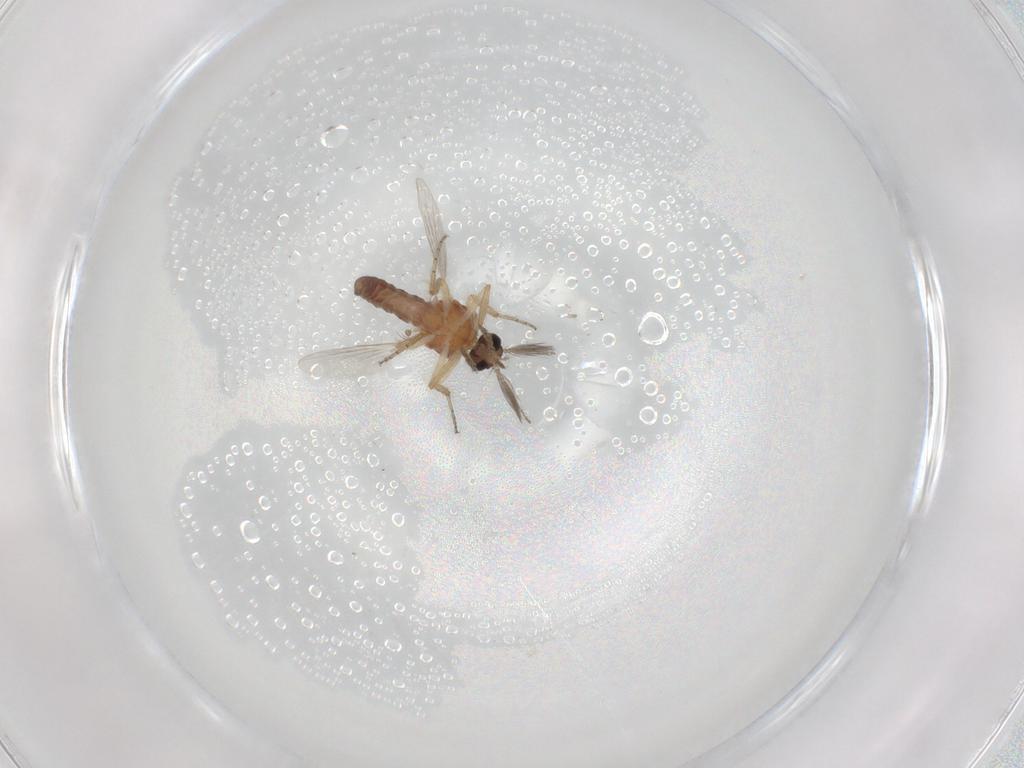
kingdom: Animalia
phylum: Arthropoda
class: Insecta
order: Diptera
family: Ceratopogonidae
